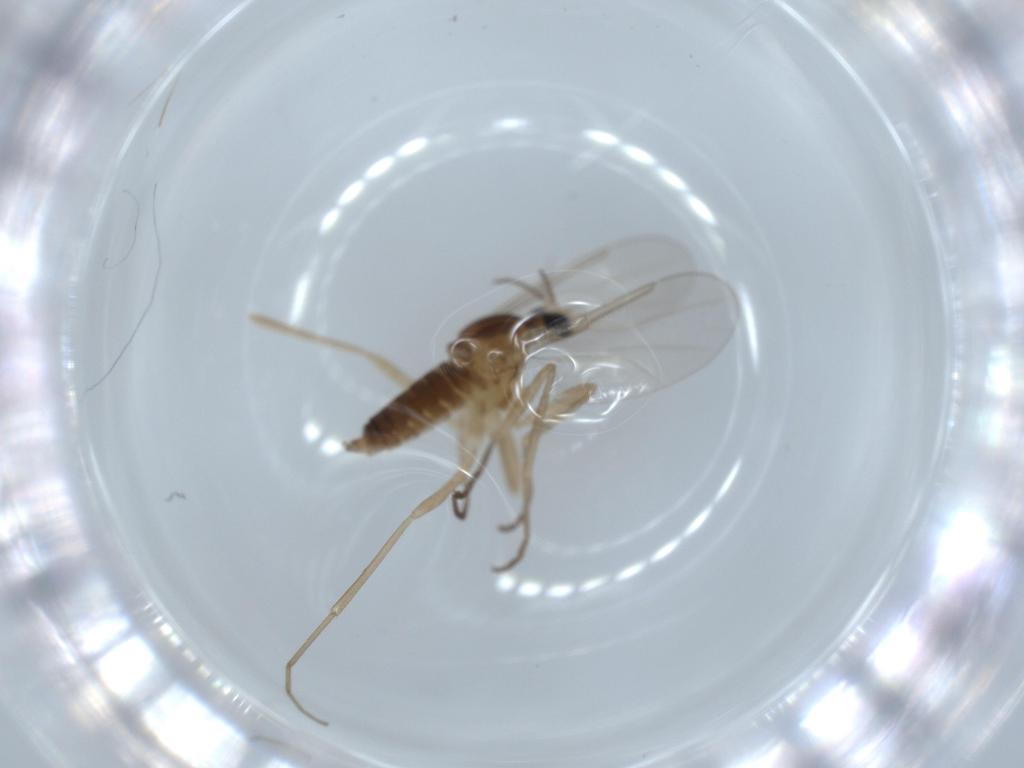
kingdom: Animalia
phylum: Arthropoda
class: Insecta
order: Diptera
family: Cecidomyiidae
